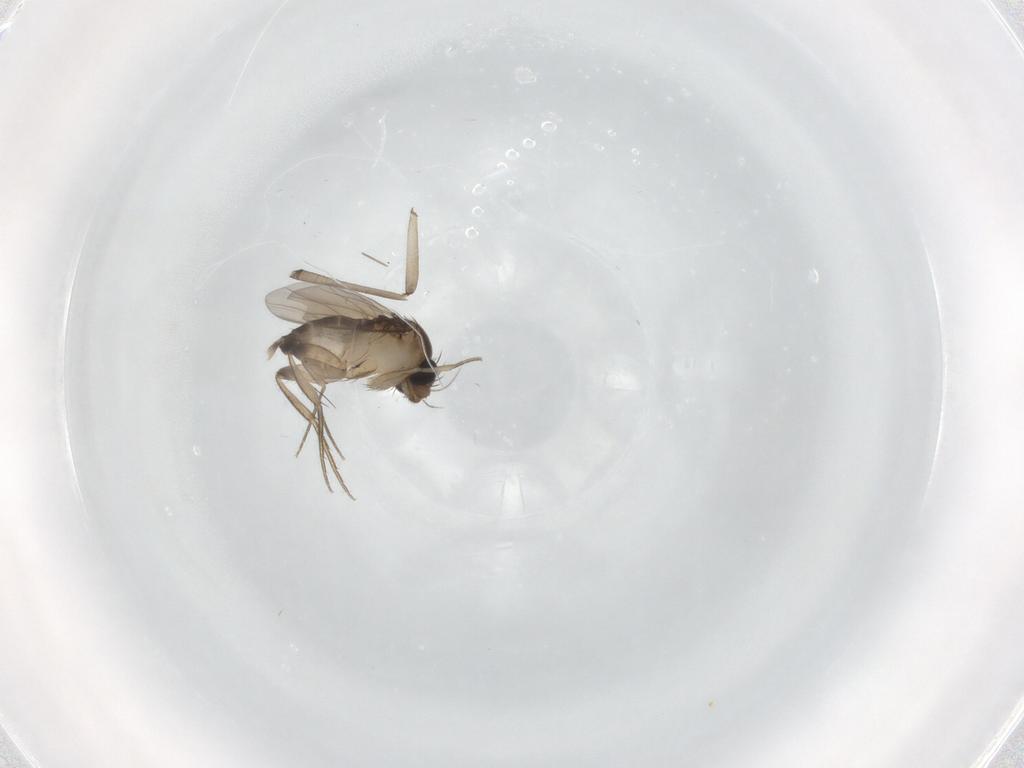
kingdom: Animalia
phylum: Arthropoda
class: Insecta
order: Diptera
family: Phoridae
